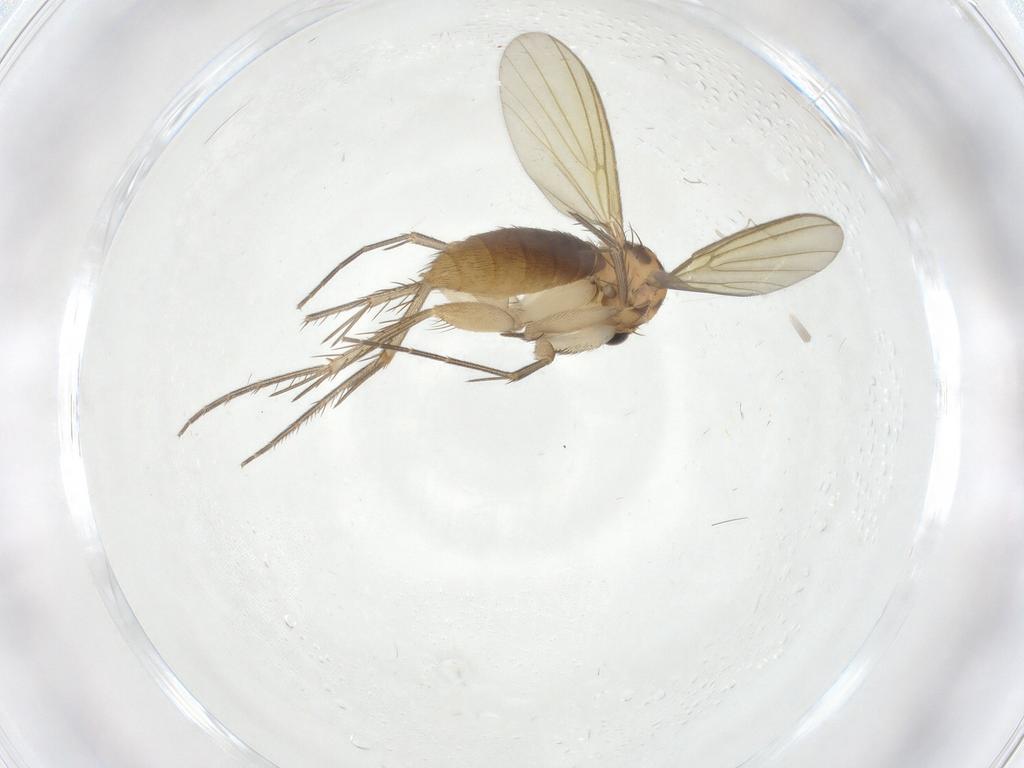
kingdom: Animalia
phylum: Arthropoda
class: Insecta
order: Diptera
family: Mycetophilidae
